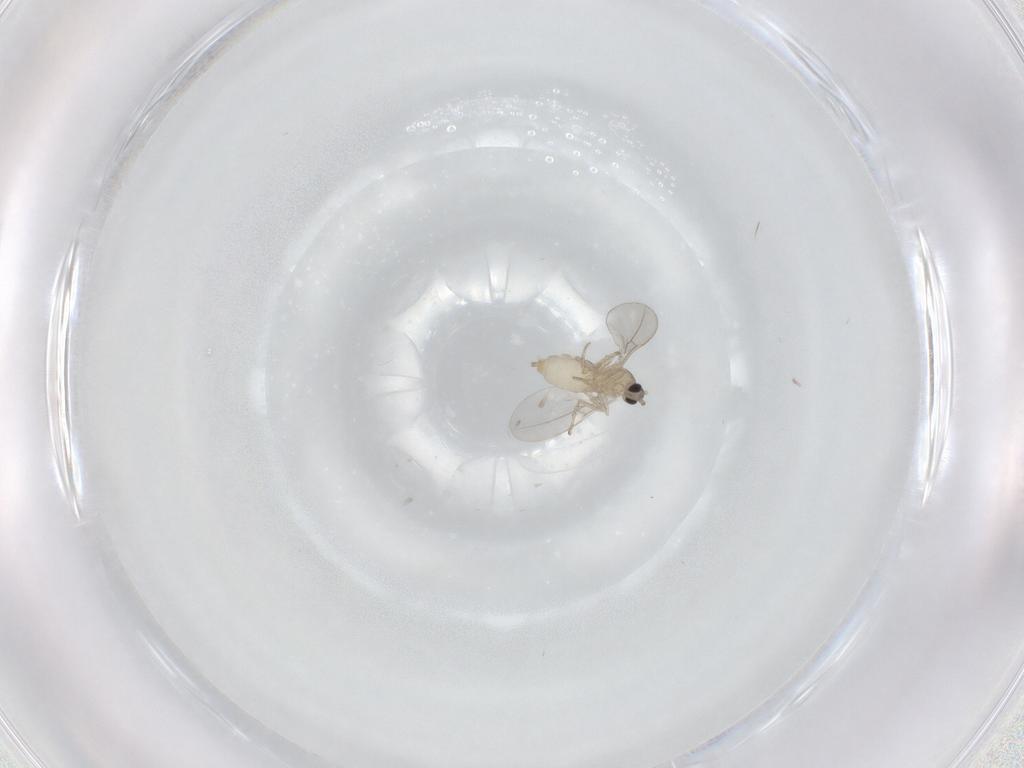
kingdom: Animalia
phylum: Arthropoda
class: Insecta
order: Diptera
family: Cecidomyiidae
